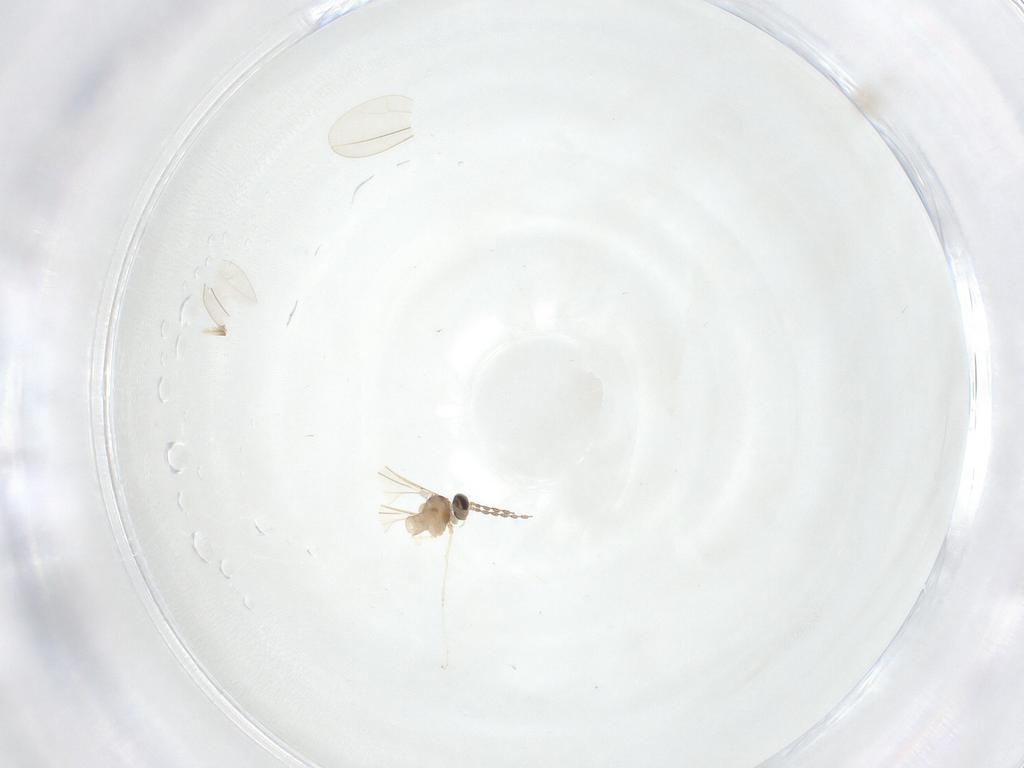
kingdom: Animalia
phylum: Arthropoda
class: Insecta
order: Diptera
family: Cecidomyiidae
